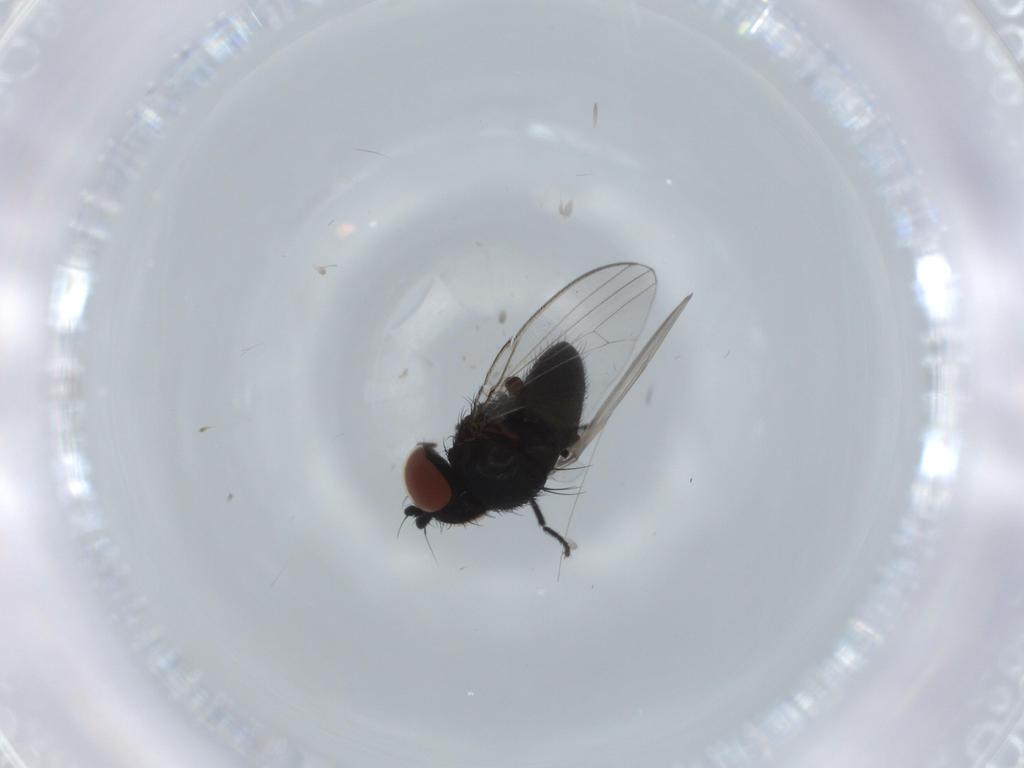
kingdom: Animalia
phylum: Arthropoda
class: Insecta
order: Diptera
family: Milichiidae
